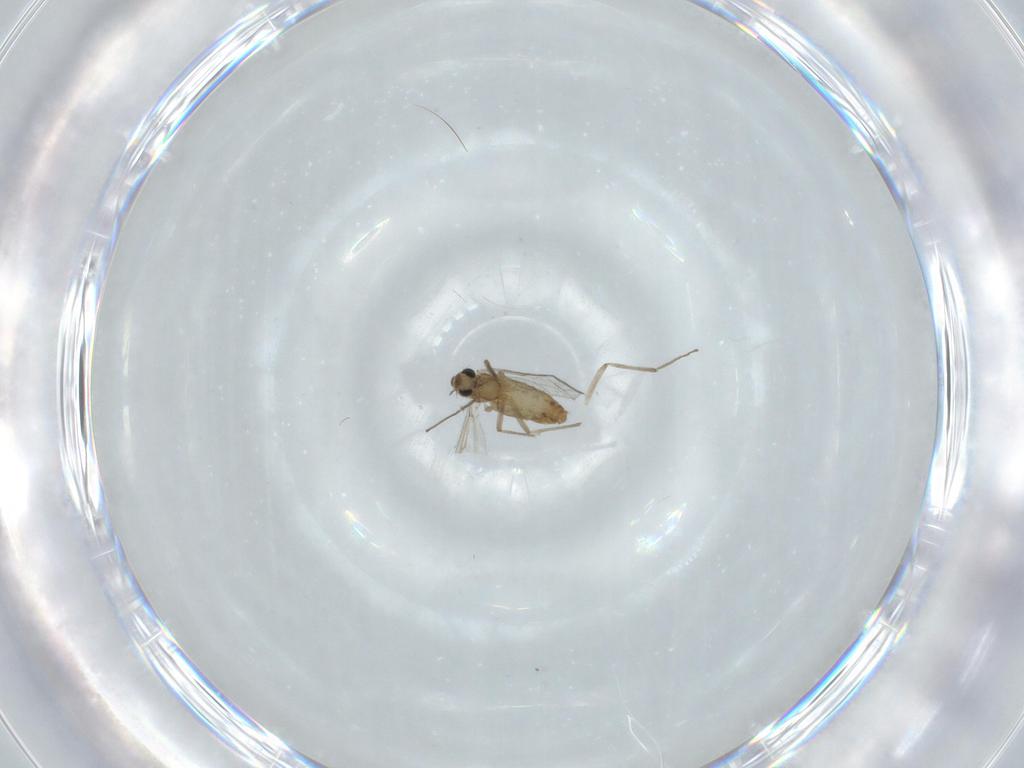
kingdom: Animalia
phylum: Arthropoda
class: Insecta
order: Diptera
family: Chironomidae
